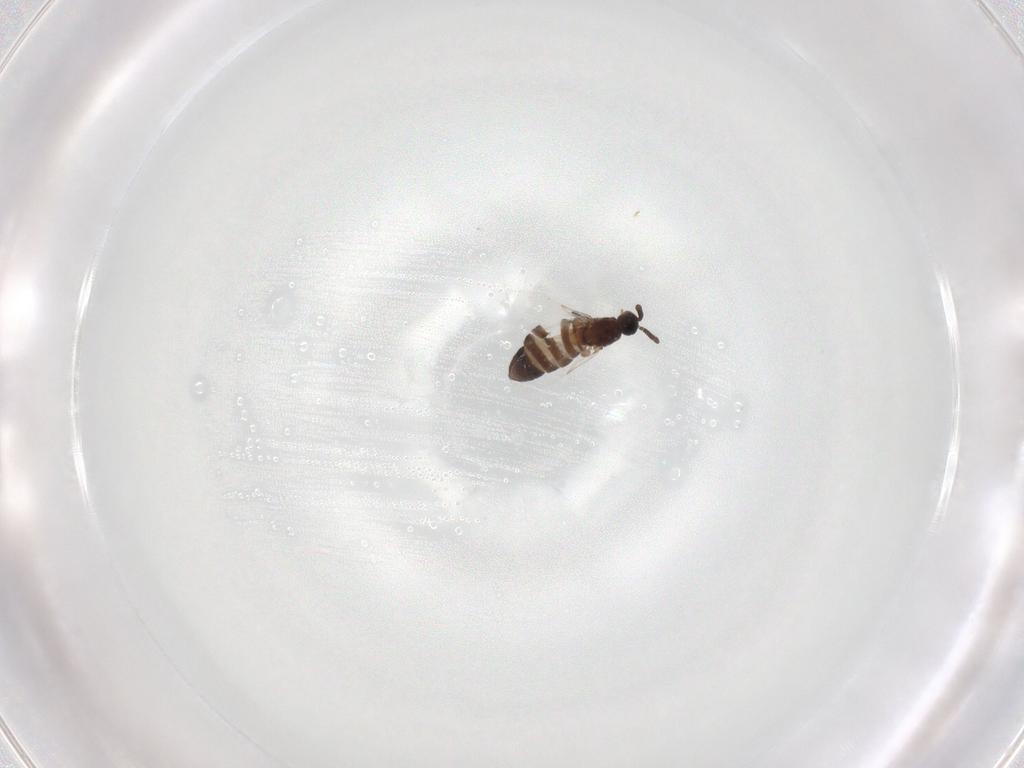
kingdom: Animalia
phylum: Arthropoda
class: Insecta
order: Diptera
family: Scatopsidae
